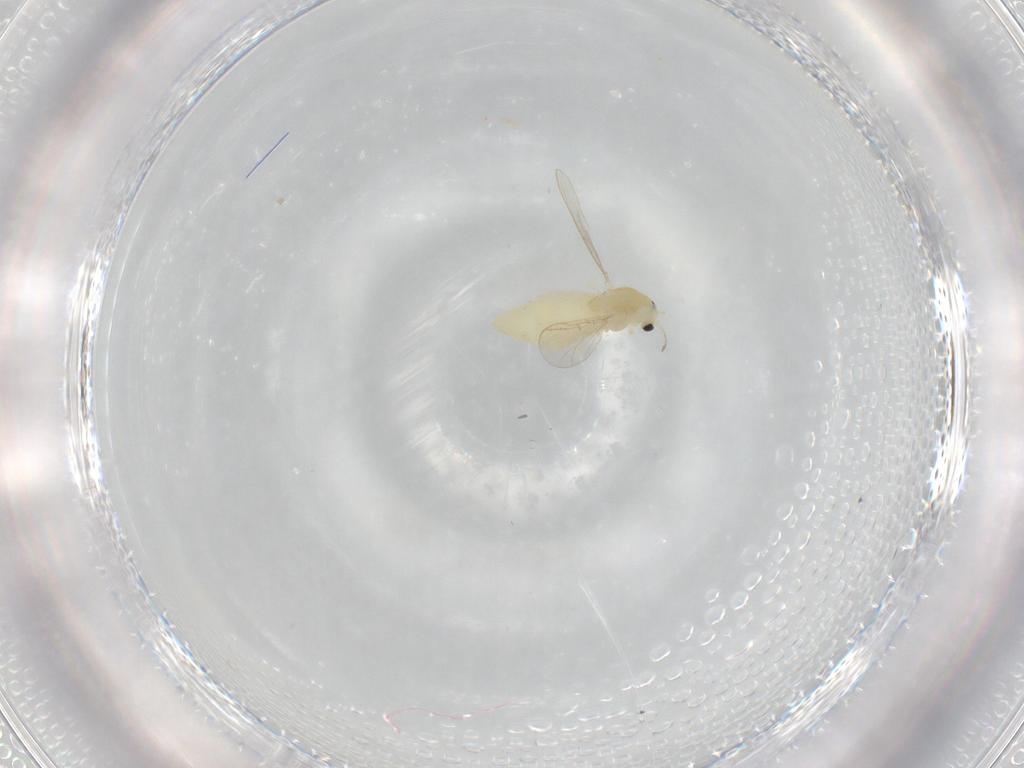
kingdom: Animalia
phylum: Arthropoda
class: Insecta
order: Diptera
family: Chironomidae
